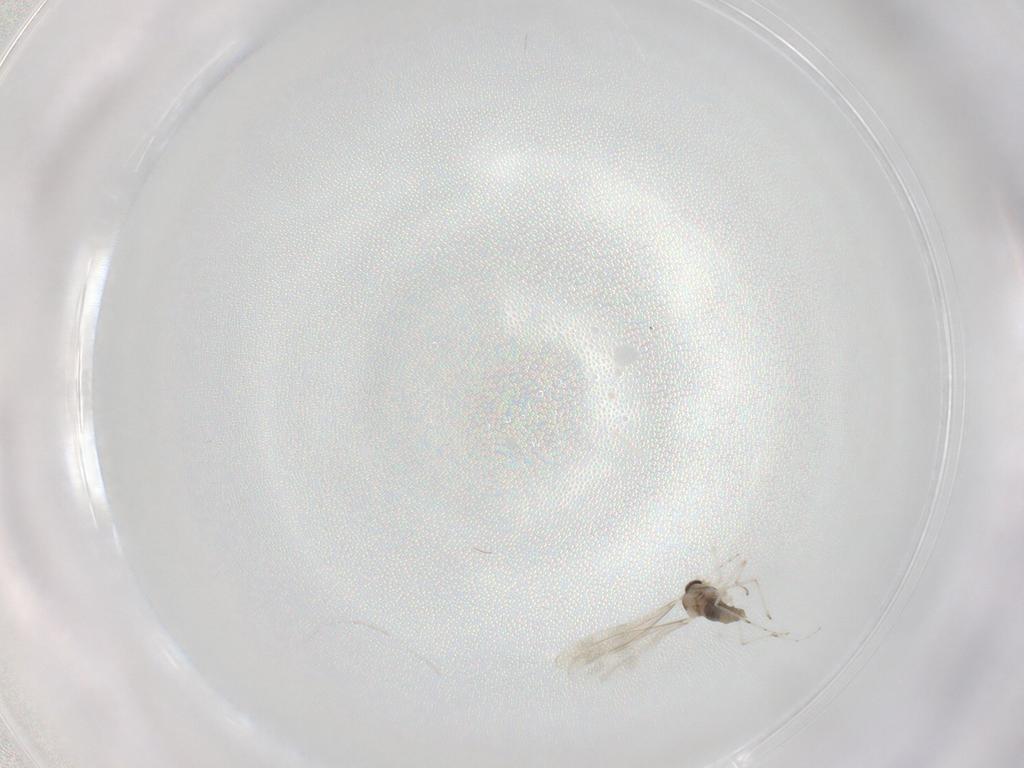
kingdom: Animalia
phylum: Arthropoda
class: Insecta
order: Diptera
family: Cecidomyiidae
